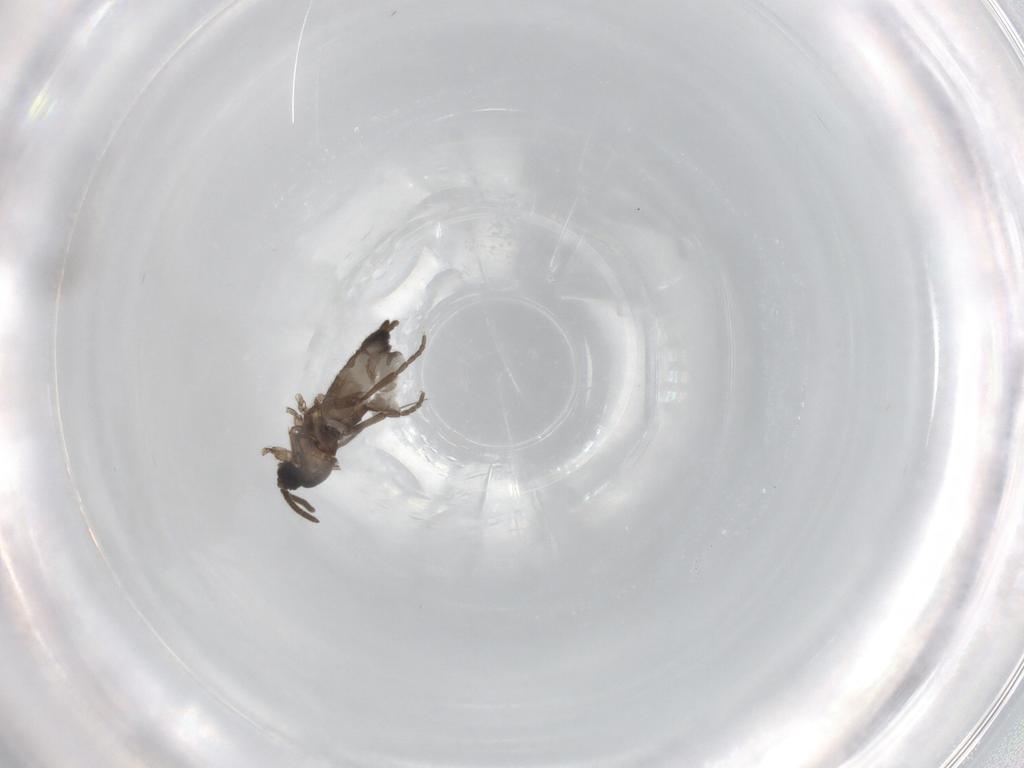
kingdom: Animalia
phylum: Arthropoda
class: Insecta
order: Diptera
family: Sciaridae
